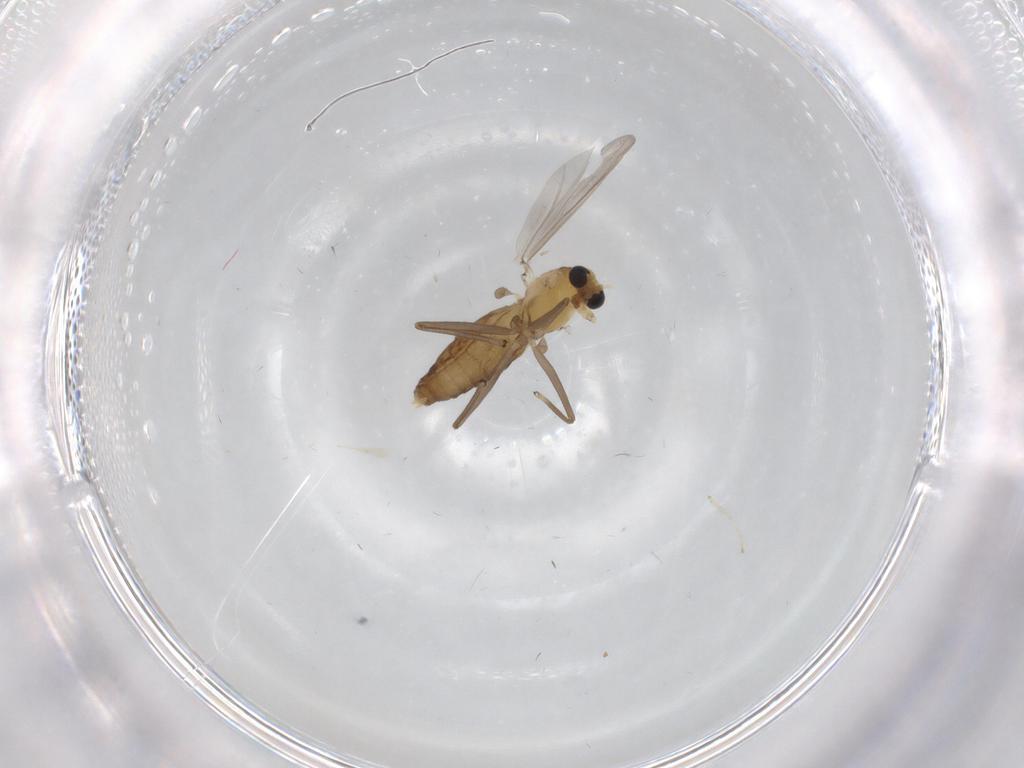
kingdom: Animalia
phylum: Arthropoda
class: Insecta
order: Diptera
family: Chironomidae
